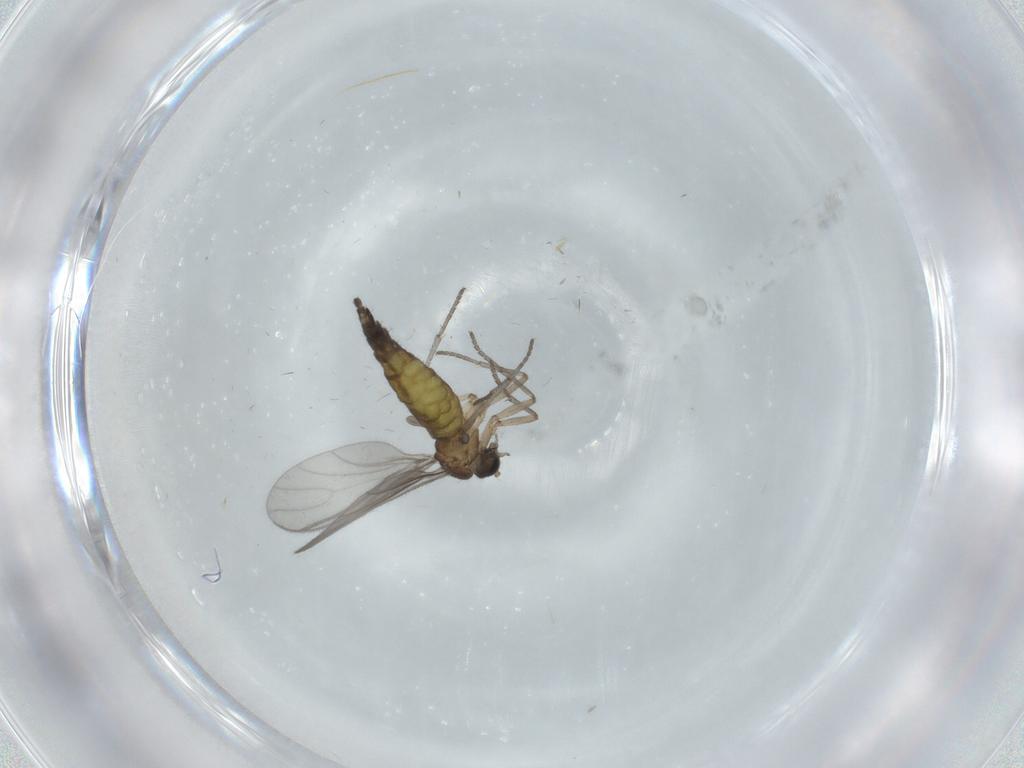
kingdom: Animalia
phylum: Arthropoda
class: Insecta
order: Diptera
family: Sciaridae
